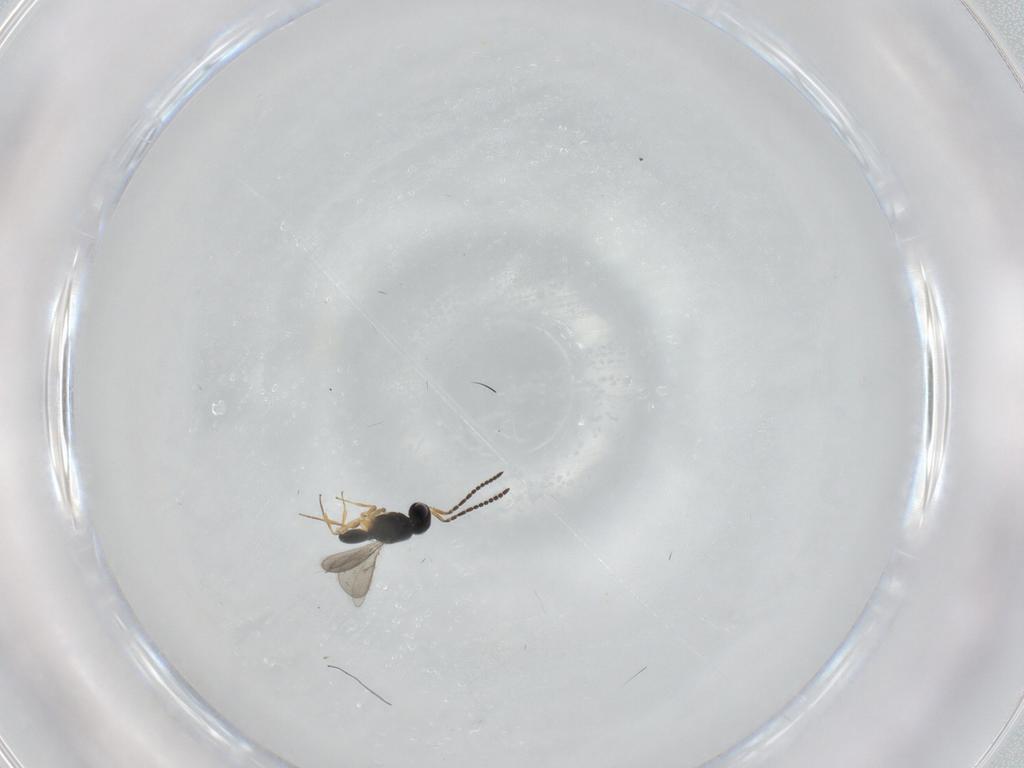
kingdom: Animalia
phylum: Arthropoda
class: Insecta
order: Hymenoptera
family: Scelionidae
